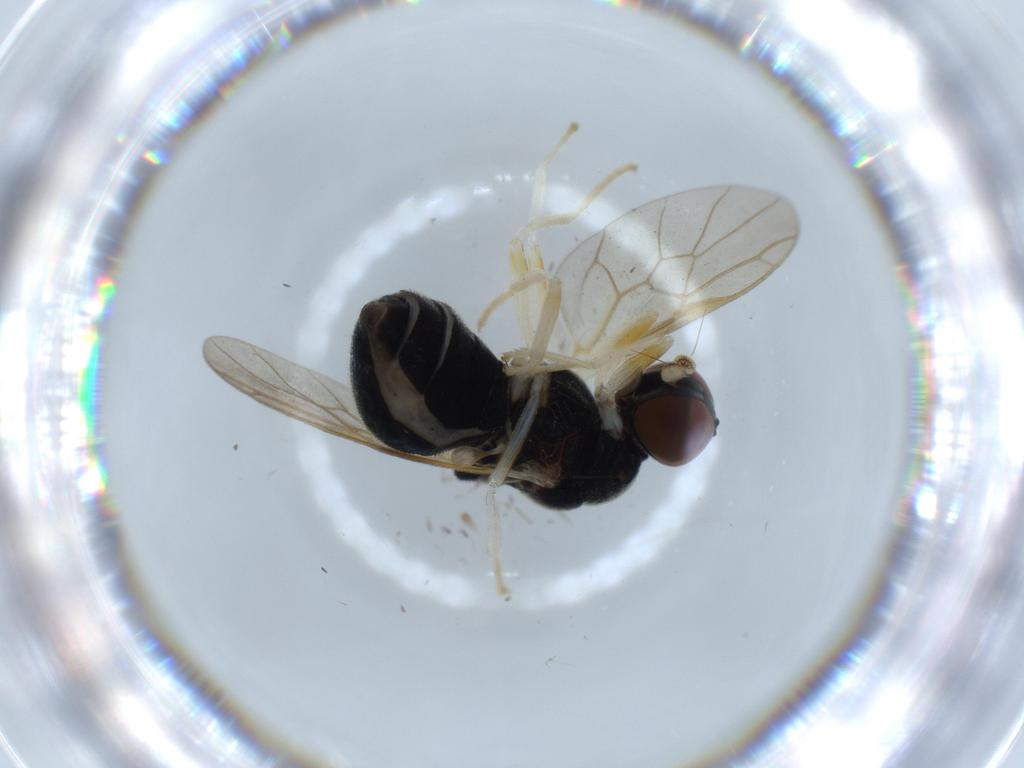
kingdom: Animalia
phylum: Arthropoda
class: Insecta
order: Diptera
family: Stratiomyidae
